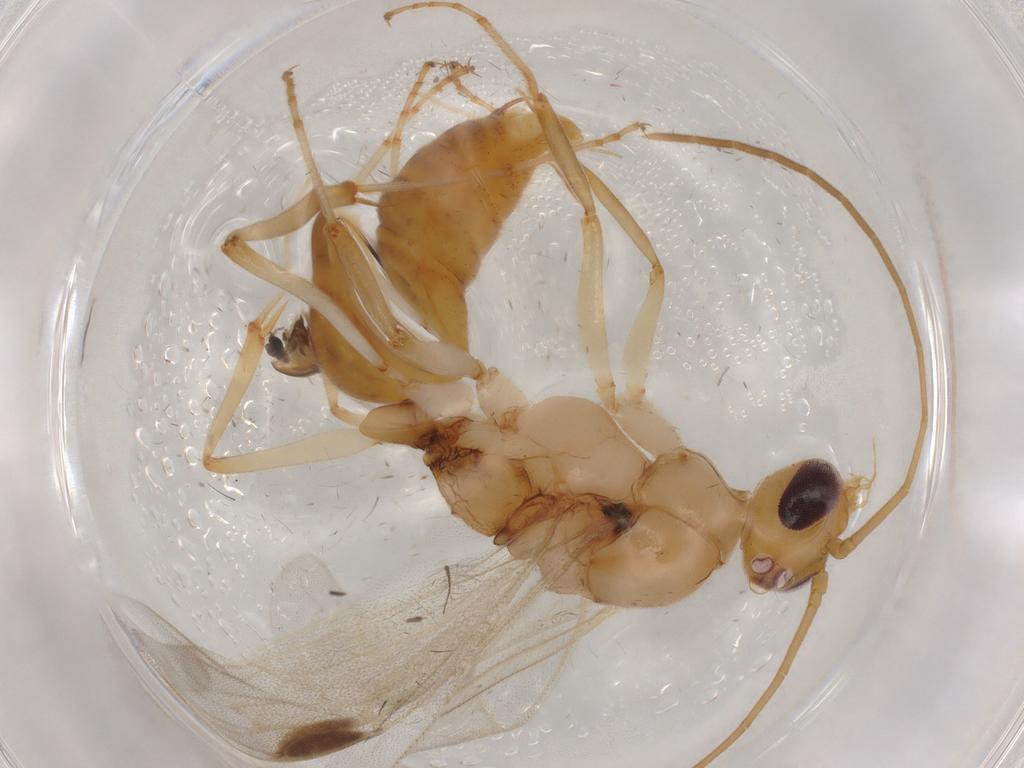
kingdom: Animalia
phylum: Arthropoda
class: Insecta
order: Diptera
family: Chironomidae
